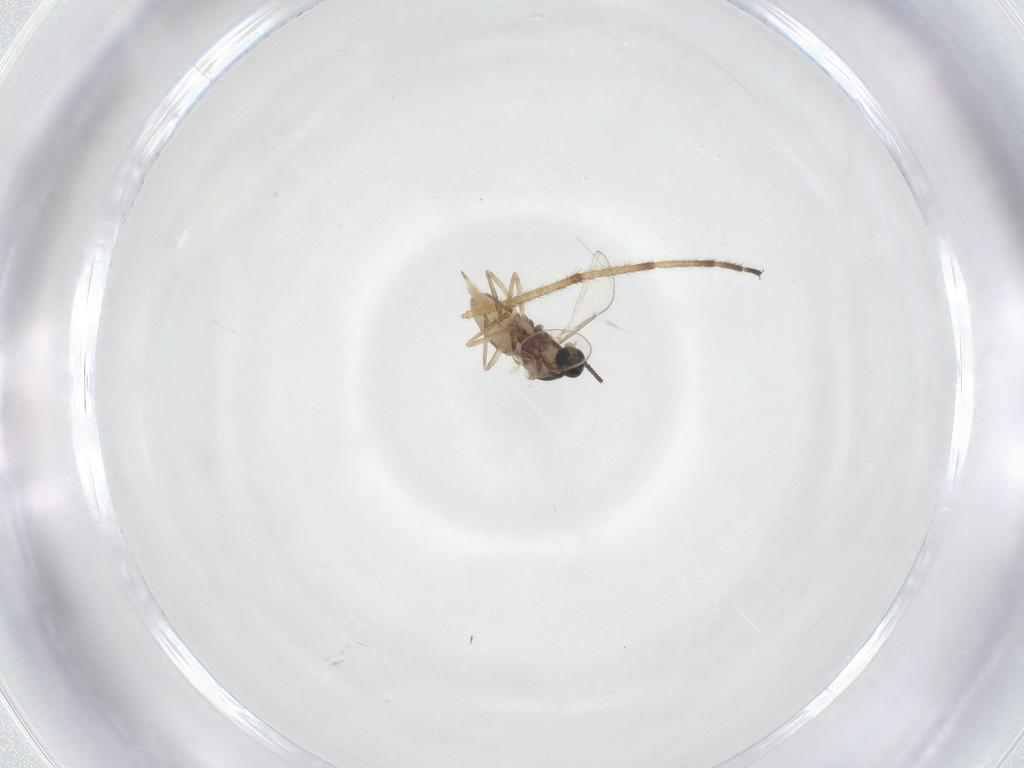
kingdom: Animalia
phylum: Arthropoda
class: Insecta
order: Diptera
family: Cecidomyiidae
